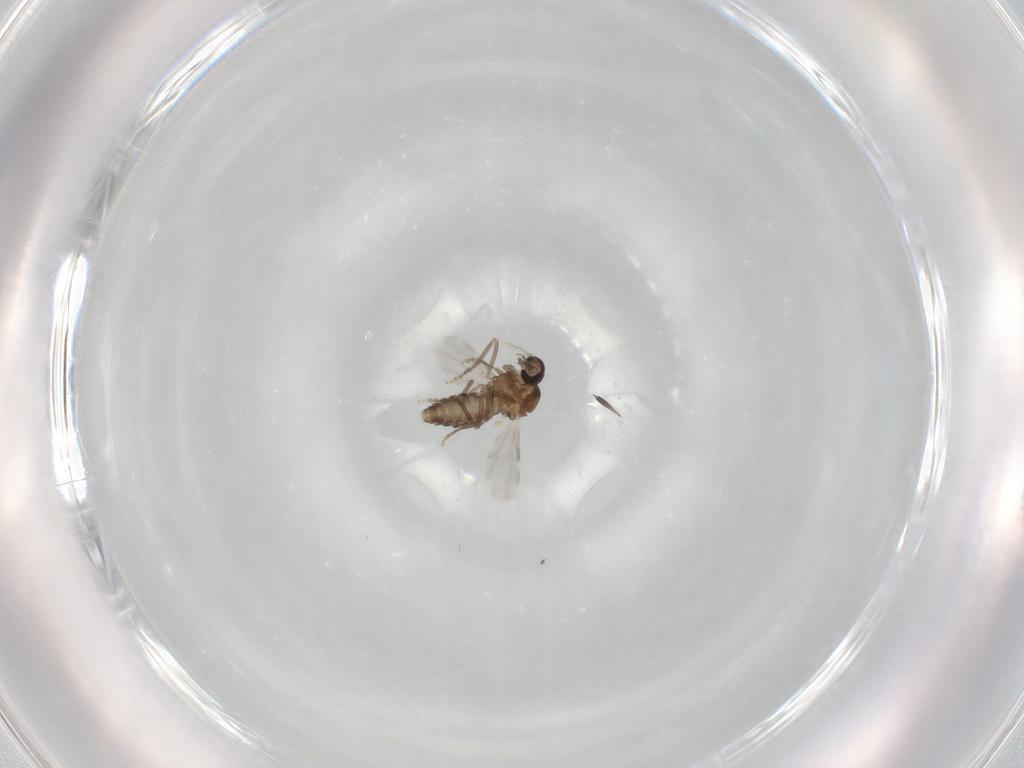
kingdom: Animalia
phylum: Arthropoda
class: Insecta
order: Diptera
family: Ceratopogonidae
